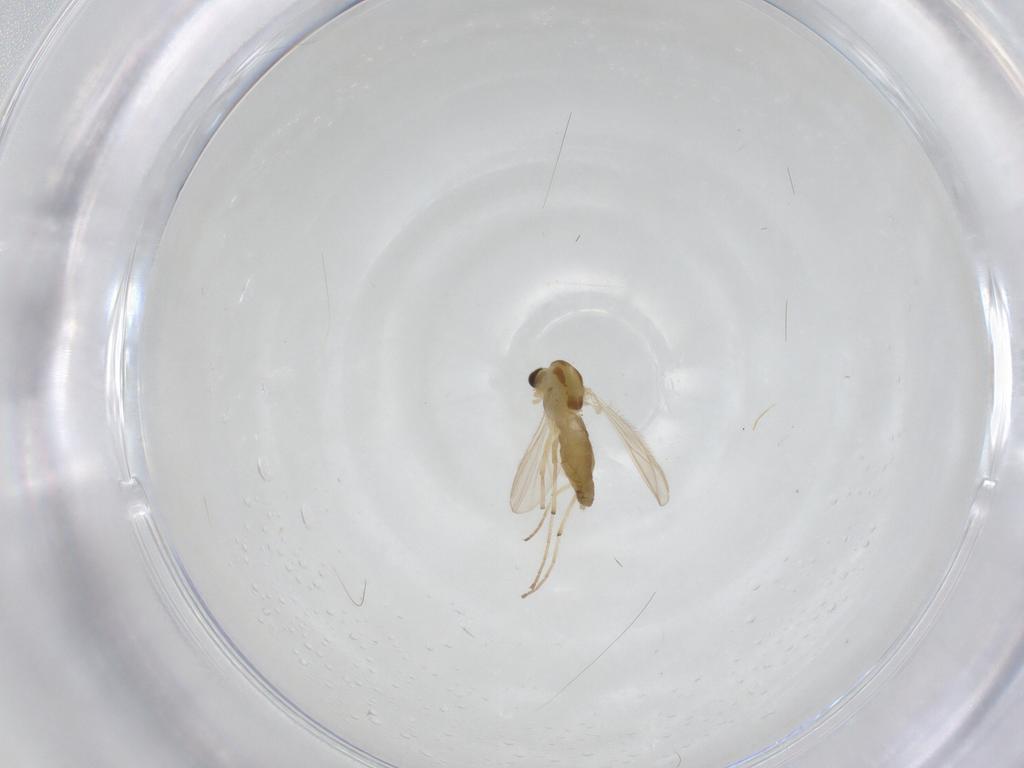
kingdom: Animalia
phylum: Arthropoda
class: Insecta
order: Diptera
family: Chironomidae
